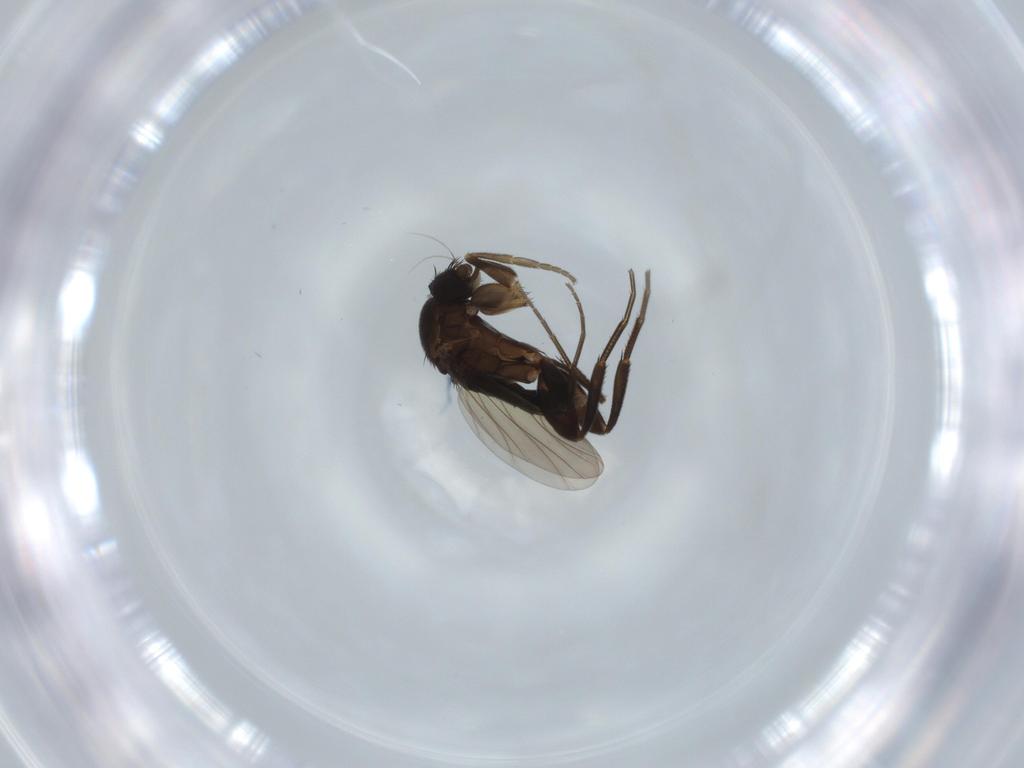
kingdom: Animalia
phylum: Arthropoda
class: Insecta
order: Diptera
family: Phoridae
